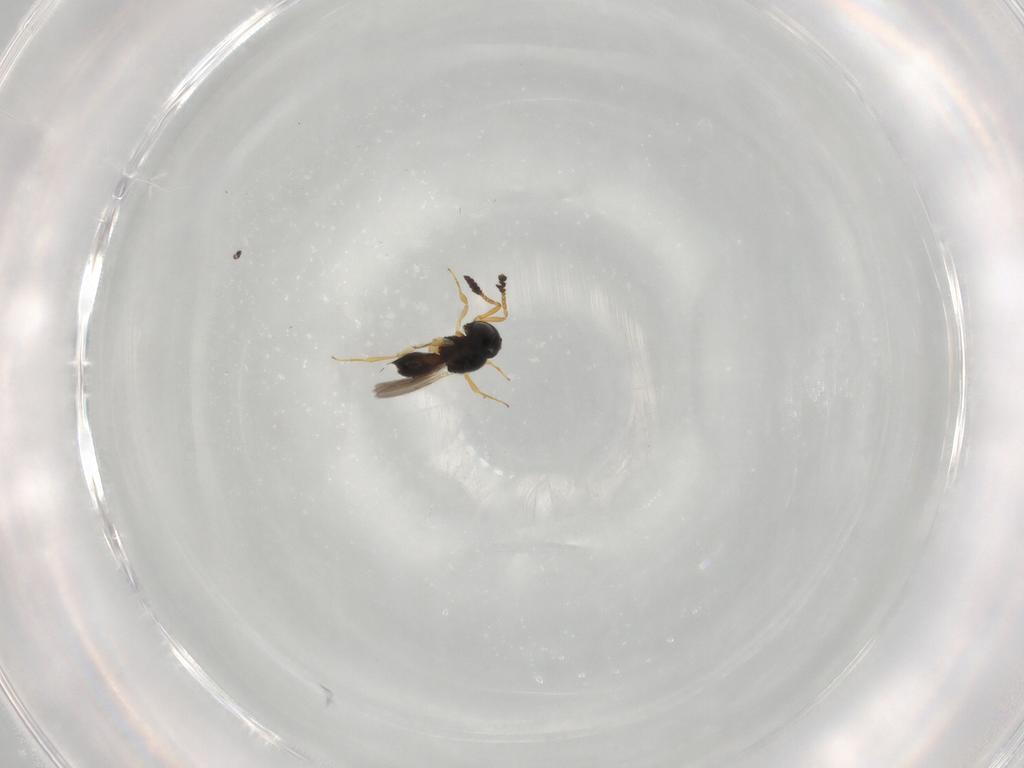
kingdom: Animalia
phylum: Arthropoda
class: Insecta
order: Hymenoptera
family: Scelionidae
